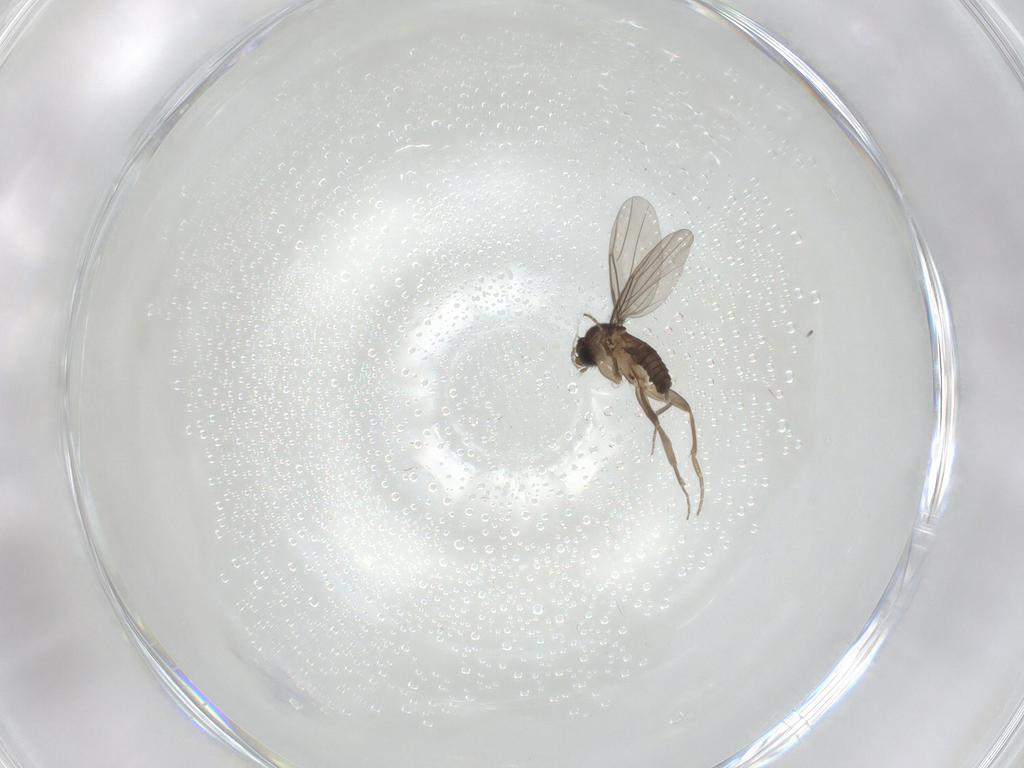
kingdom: Animalia
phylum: Arthropoda
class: Insecta
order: Diptera
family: Phoridae
